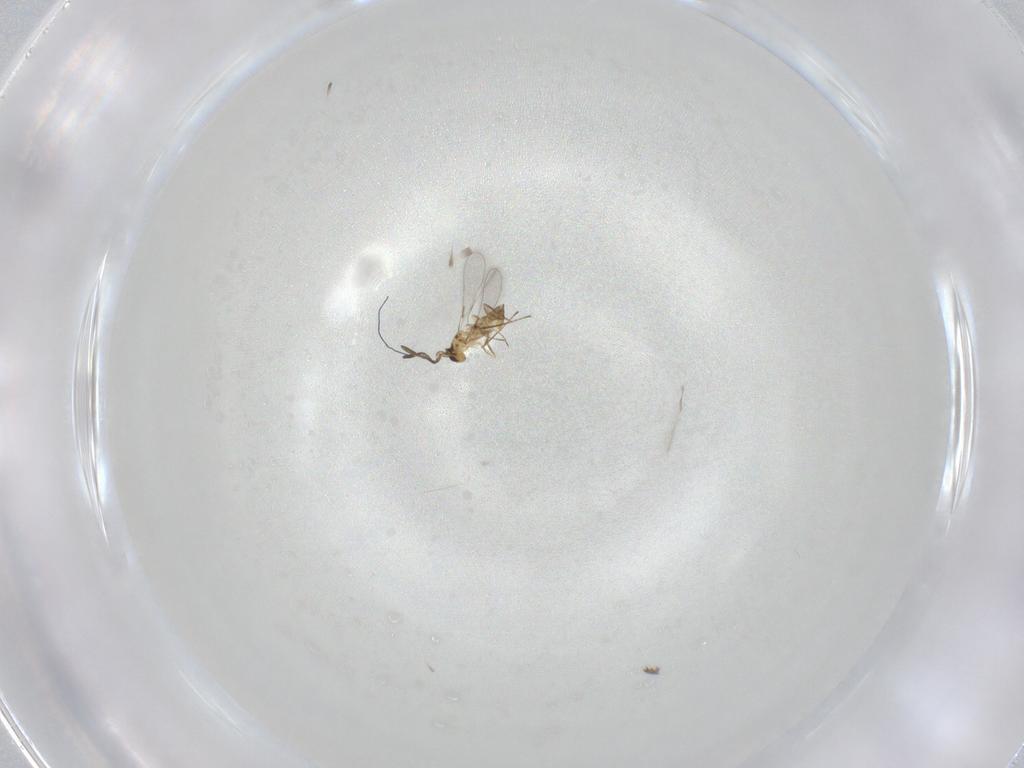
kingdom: Animalia
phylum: Arthropoda
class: Insecta
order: Hymenoptera
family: Mymaridae
